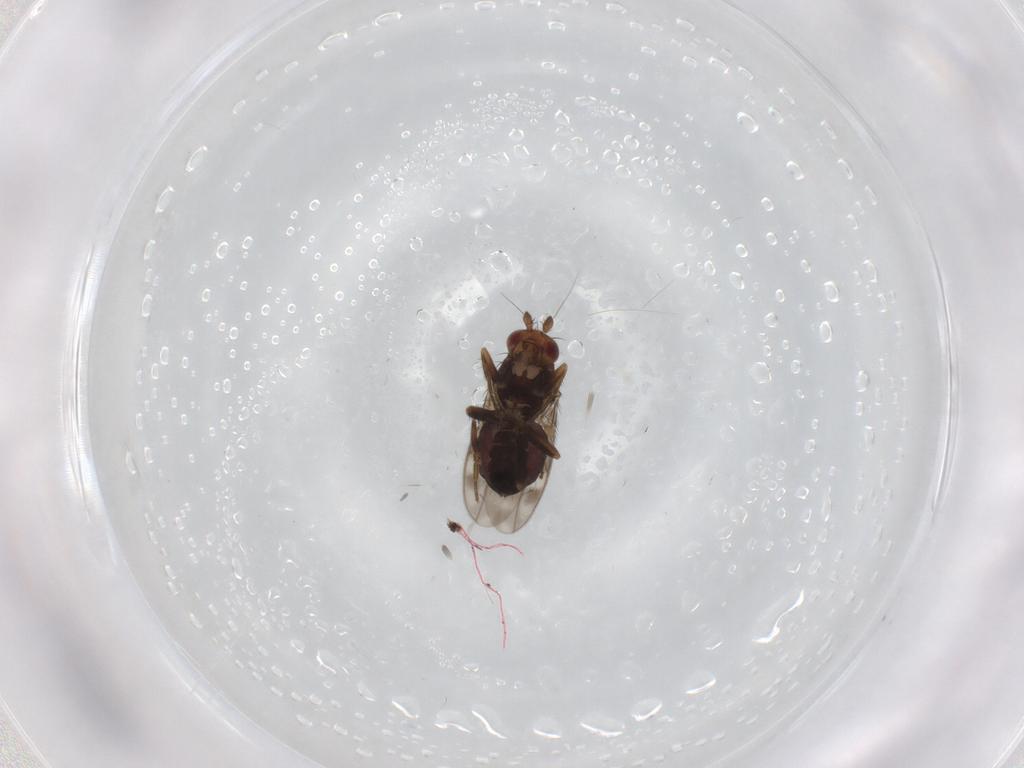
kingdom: Animalia
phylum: Arthropoda
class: Insecta
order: Diptera
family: Sphaeroceridae
